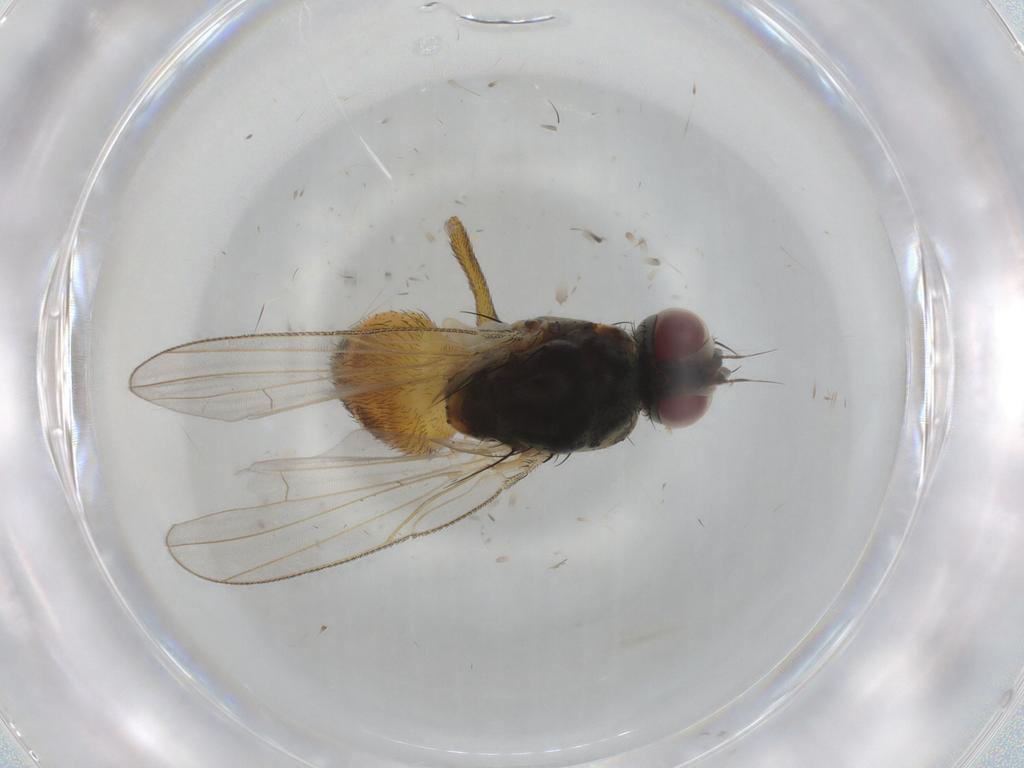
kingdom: Animalia
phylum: Arthropoda
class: Insecta
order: Diptera
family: Muscidae
